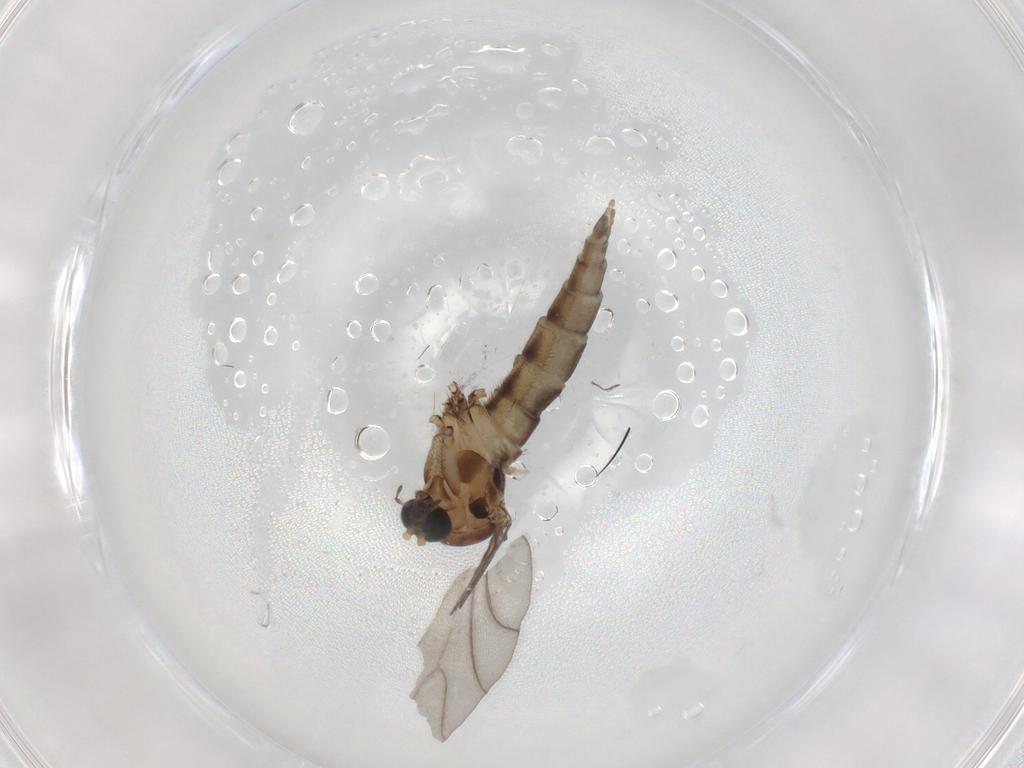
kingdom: Animalia
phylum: Arthropoda
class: Insecta
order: Diptera
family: Sciaridae
